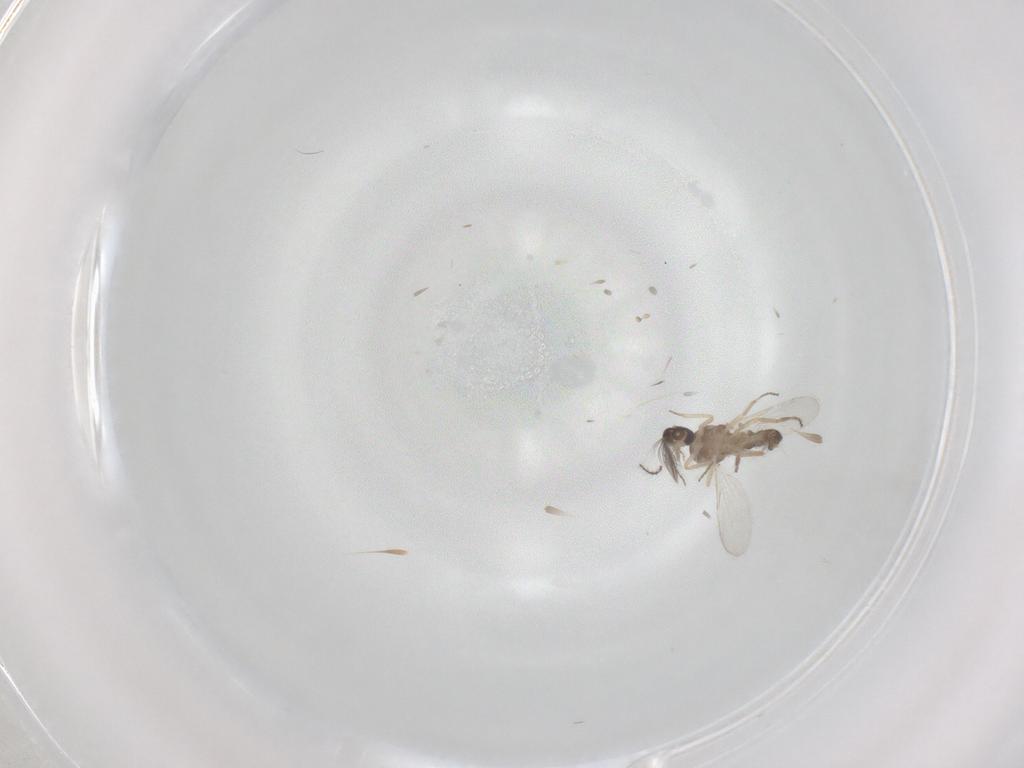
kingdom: Animalia
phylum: Arthropoda
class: Insecta
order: Diptera
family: Ceratopogonidae
